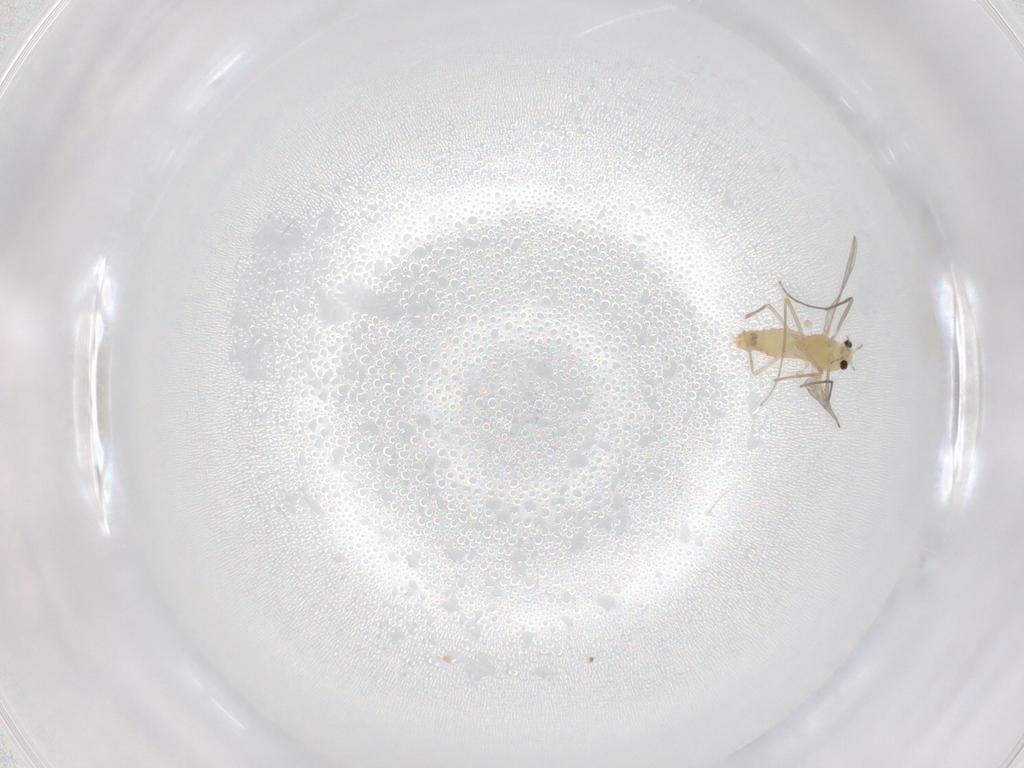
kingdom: Animalia
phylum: Arthropoda
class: Insecta
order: Diptera
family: Chironomidae
